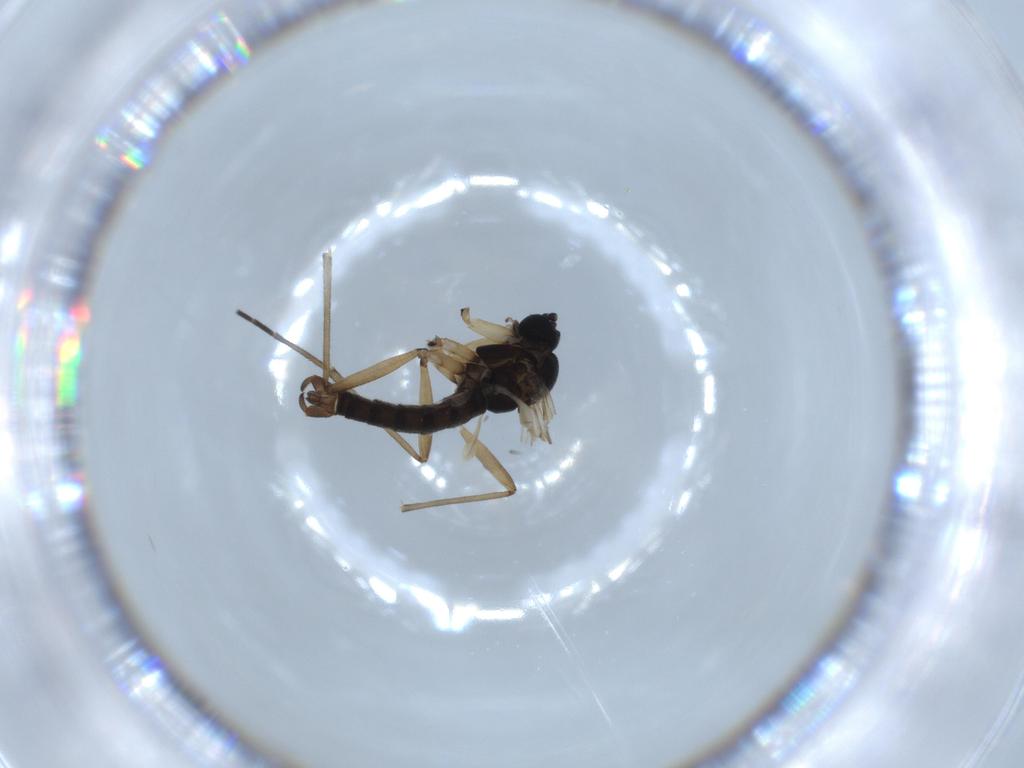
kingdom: Animalia
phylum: Arthropoda
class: Insecta
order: Diptera
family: Sciaridae
